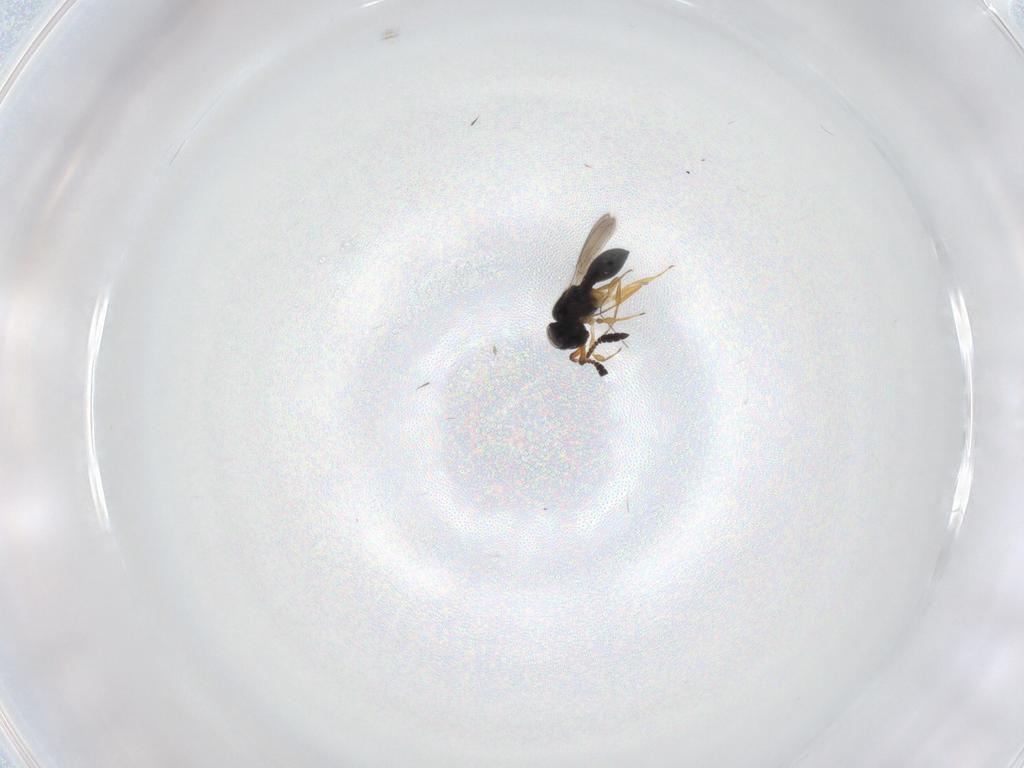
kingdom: Animalia
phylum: Arthropoda
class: Insecta
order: Hymenoptera
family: Scelionidae
